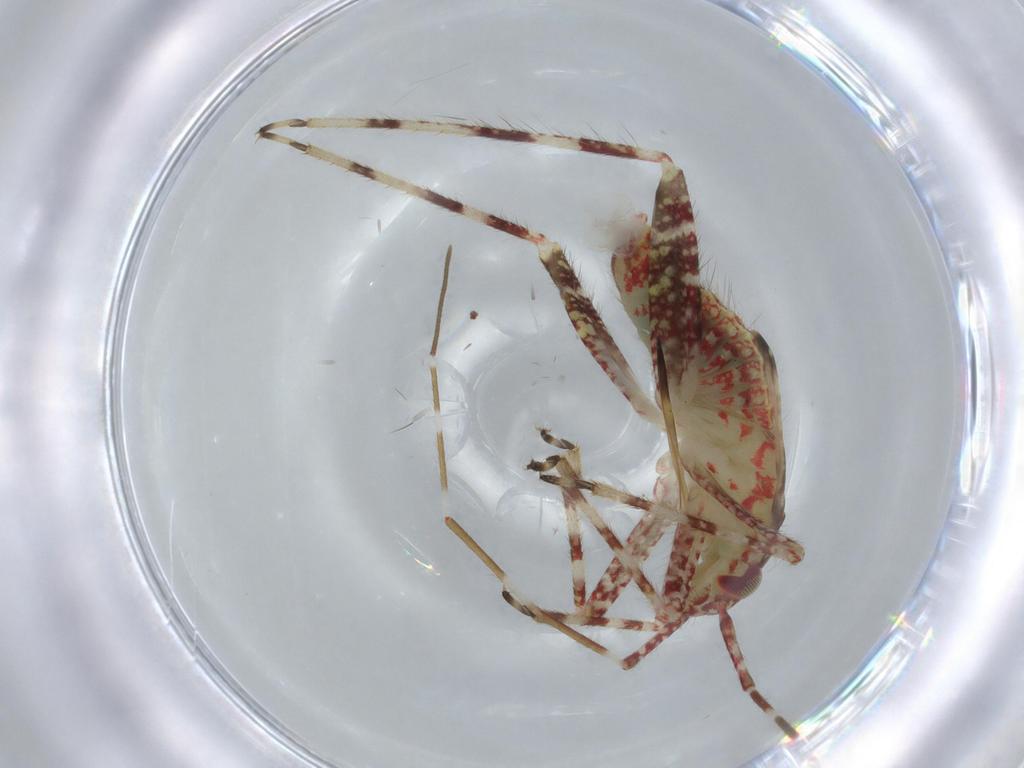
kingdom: Animalia
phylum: Arthropoda
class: Insecta
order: Hemiptera
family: Miridae
